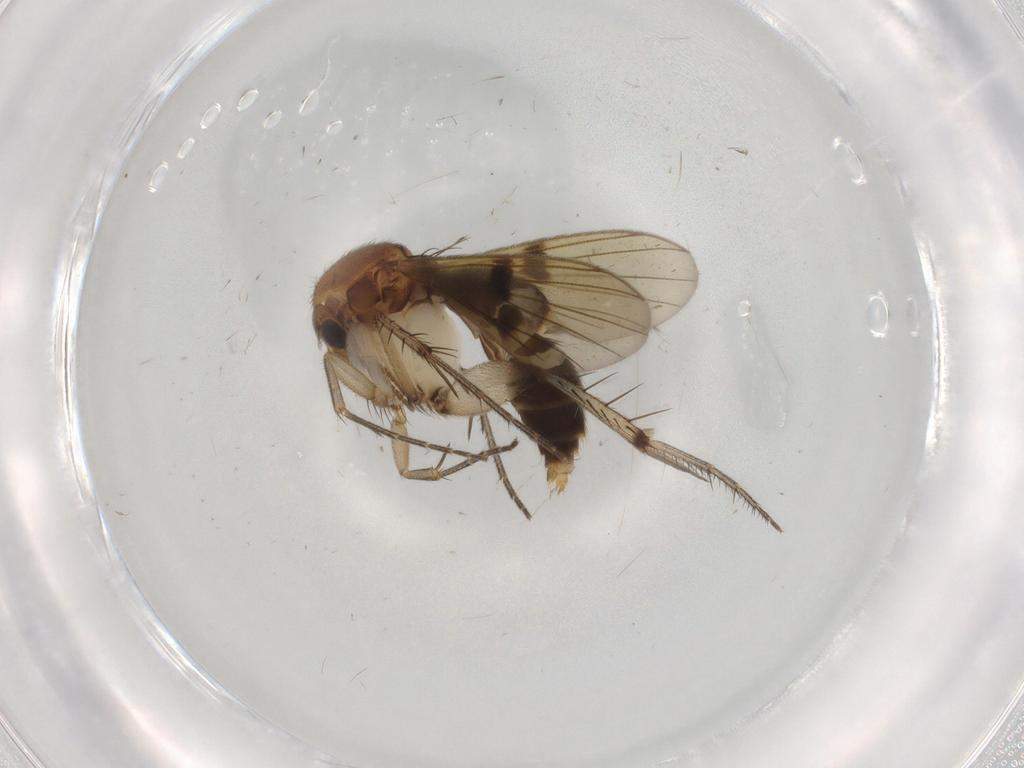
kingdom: Animalia
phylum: Arthropoda
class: Insecta
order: Diptera
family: Mycetophilidae
